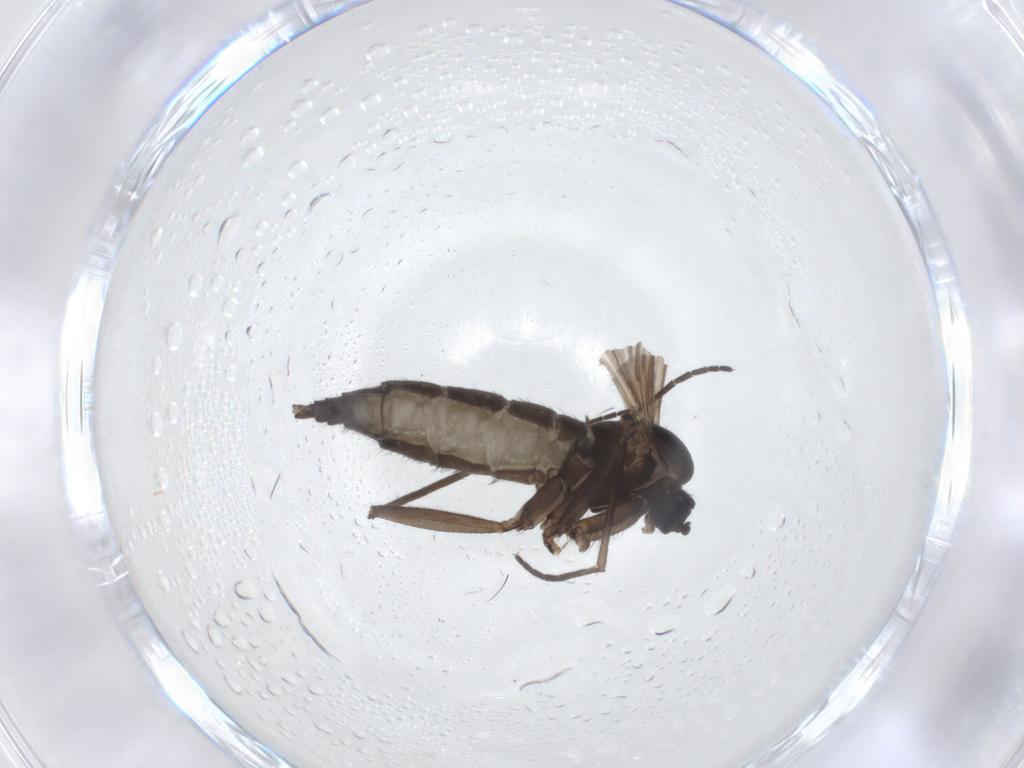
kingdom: Animalia
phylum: Arthropoda
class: Insecta
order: Diptera
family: Sciaridae
